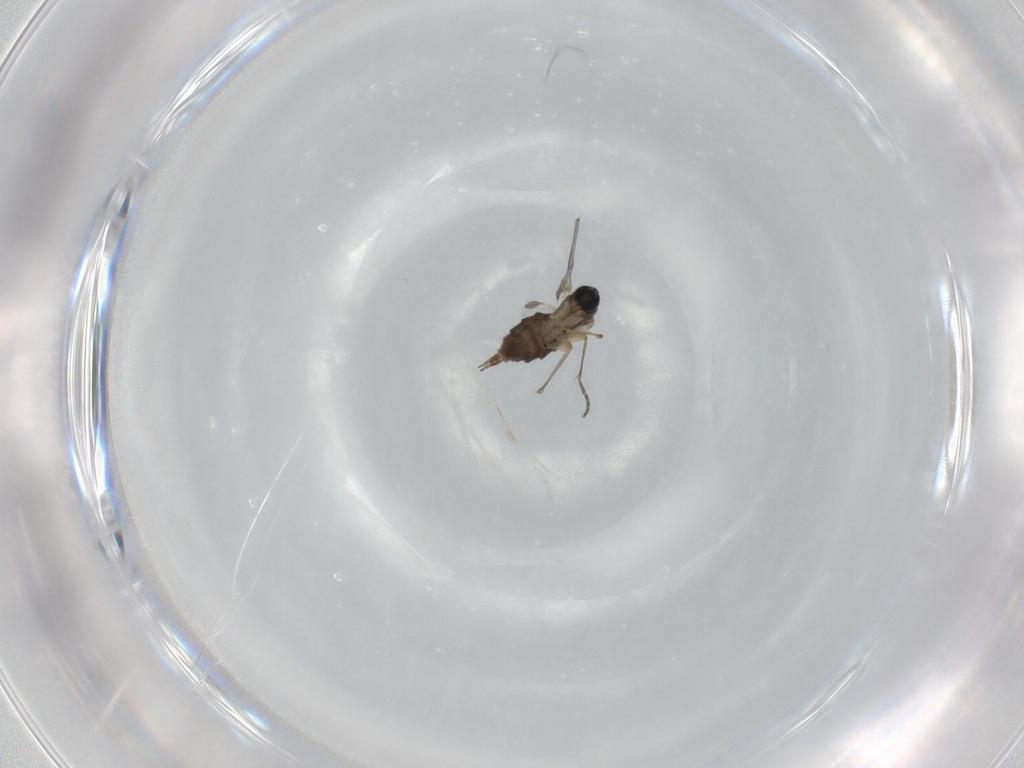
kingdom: Animalia
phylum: Arthropoda
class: Insecta
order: Diptera
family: Sciaridae
